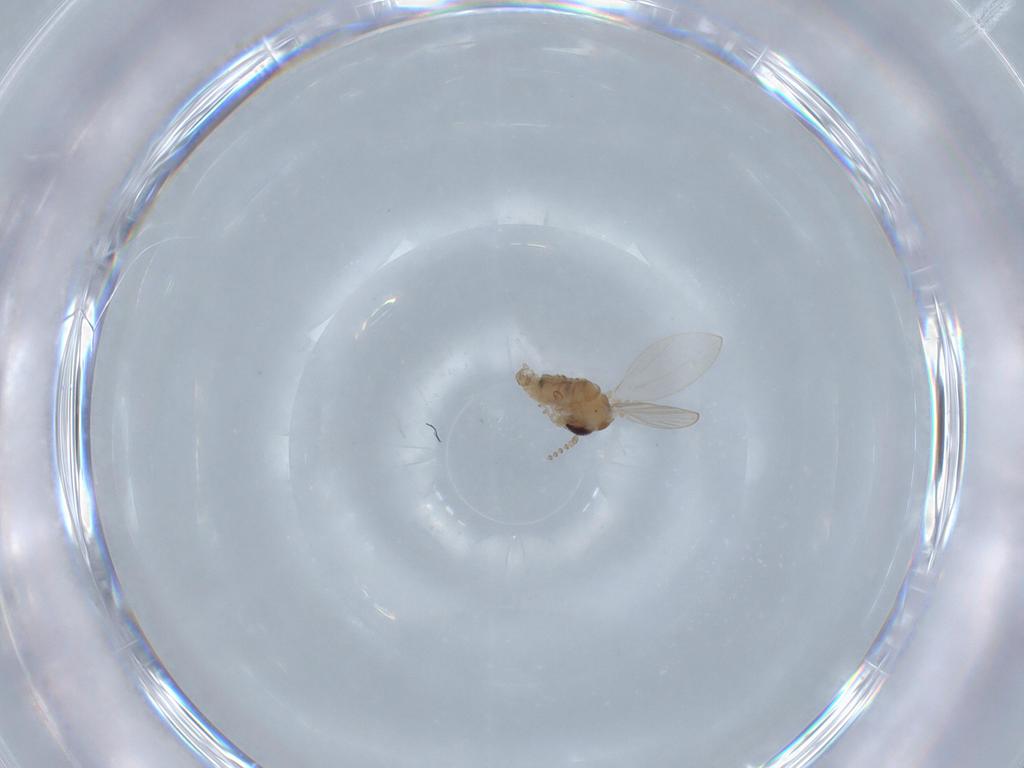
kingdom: Animalia
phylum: Arthropoda
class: Insecta
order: Diptera
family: Psychodidae
